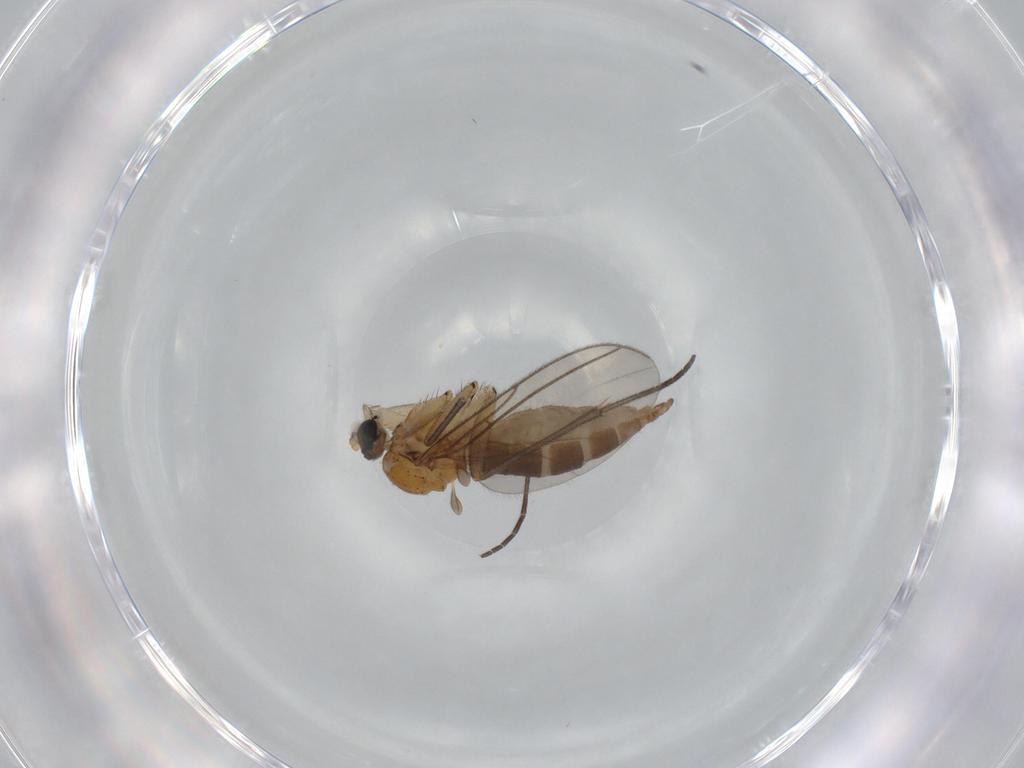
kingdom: Animalia
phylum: Arthropoda
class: Insecta
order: Diptera
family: Sciaridae
